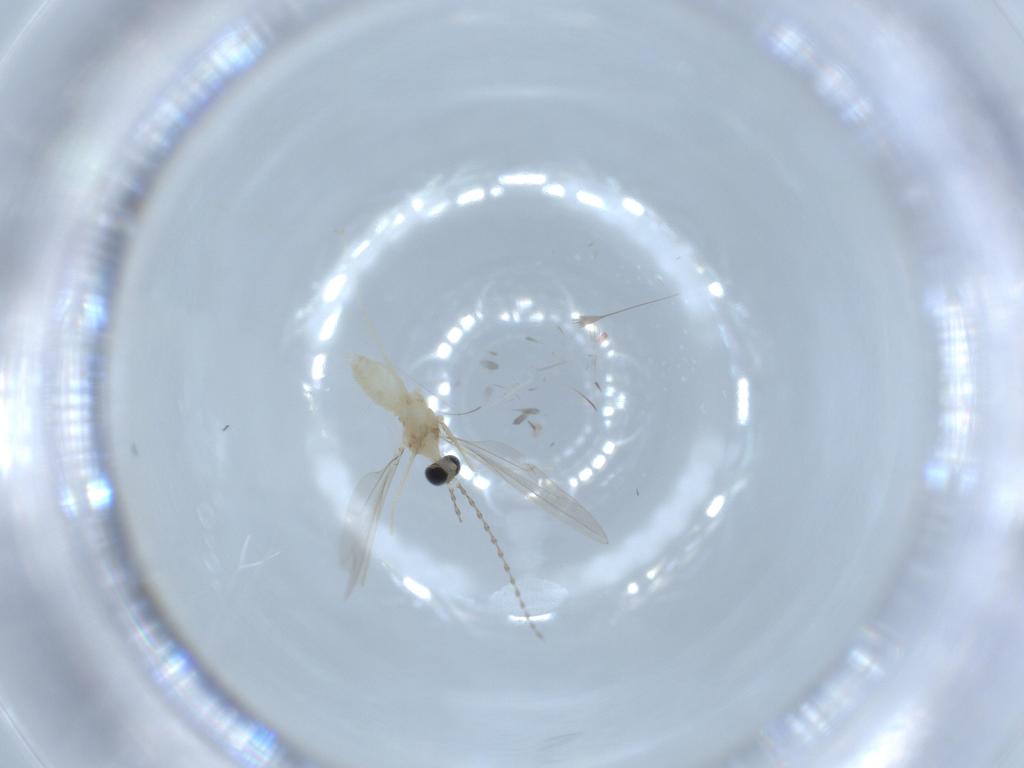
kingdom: Animalia
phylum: Arthropoda
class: Insecta
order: Diptera
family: Cecidomyiidae
